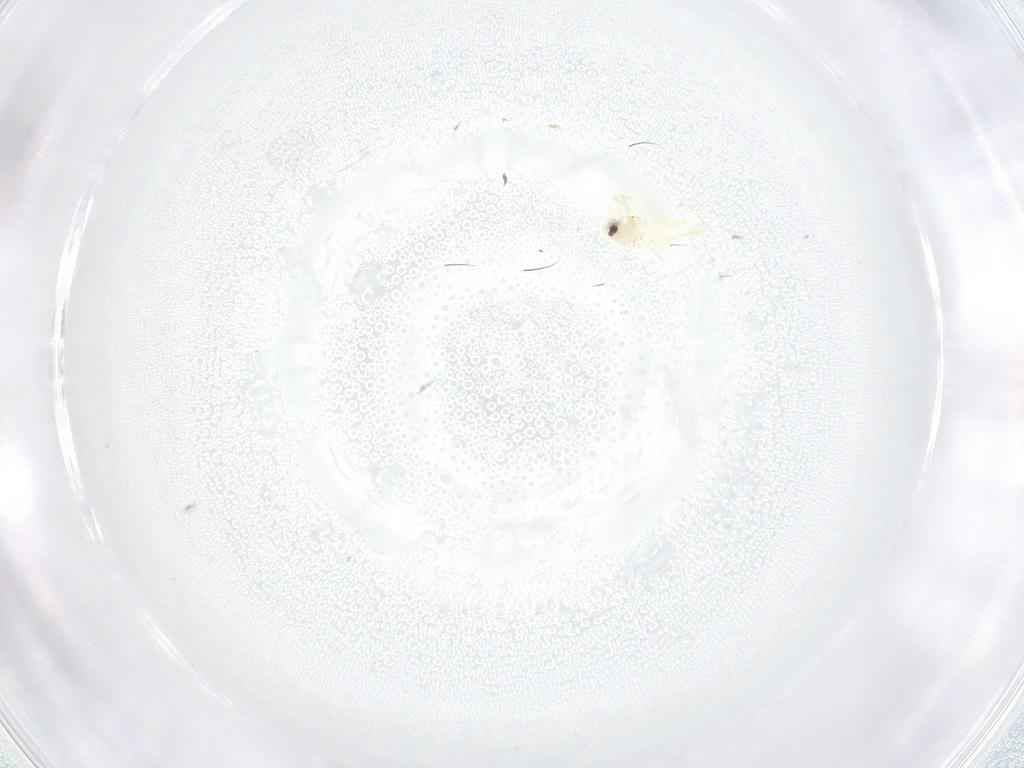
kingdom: Animalia
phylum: Arthropoda
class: Insecta
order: Hemiptera
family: Aleyrodidae
